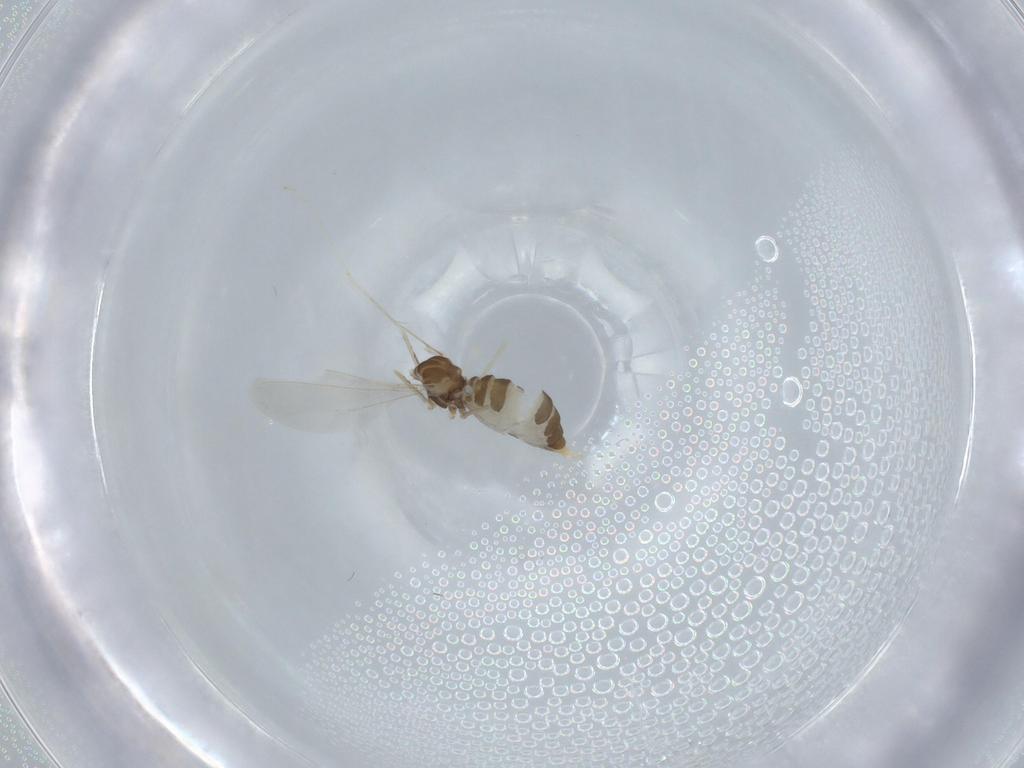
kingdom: Animalia
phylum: Arthropoda
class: Insecta
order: Diptera
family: Cecidomyiidae
